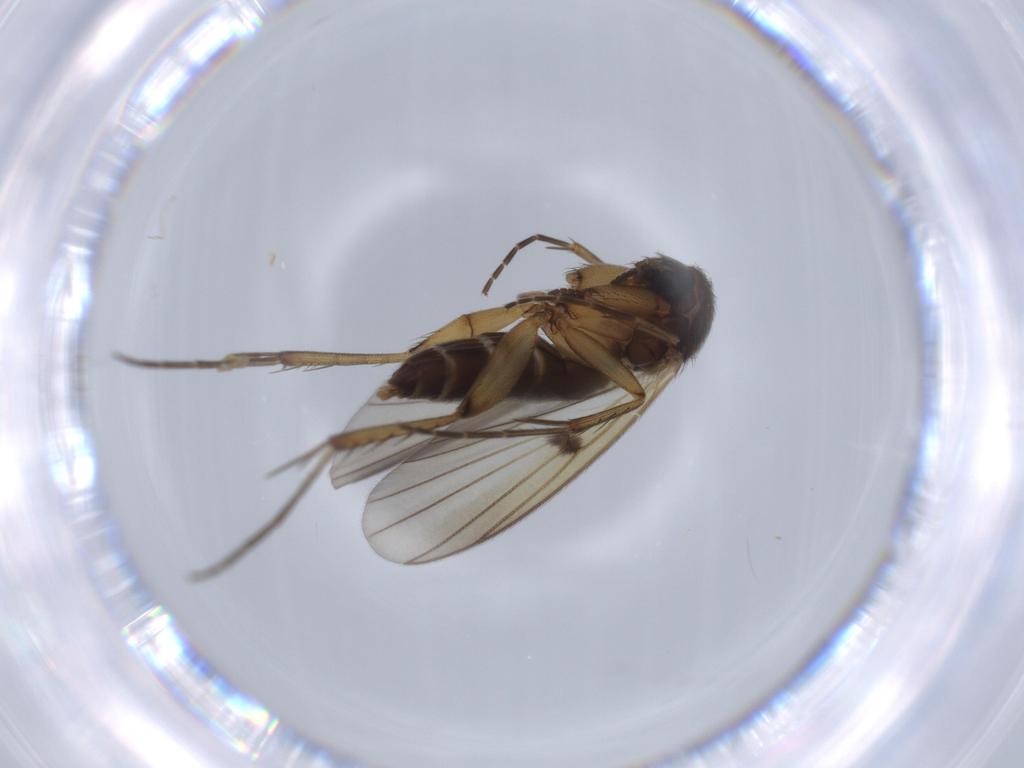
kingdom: Animalia
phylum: Arthropoda
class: Insecta
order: Diptera
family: Mycetophilidae
